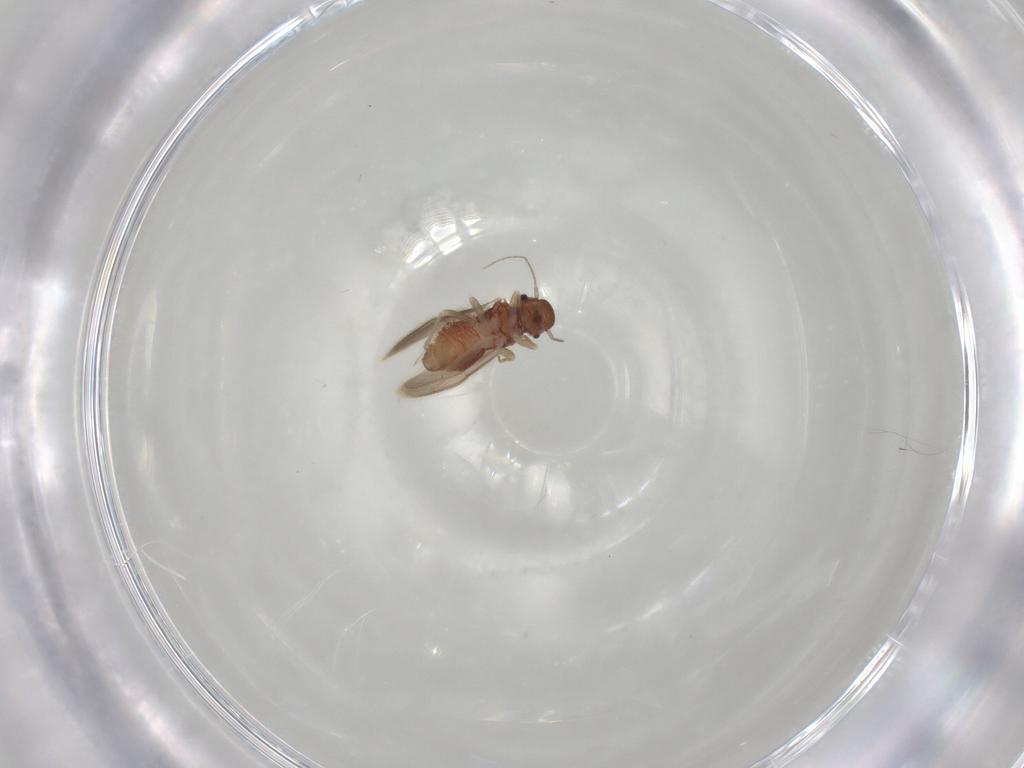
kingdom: Animalia
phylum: Arthropoda
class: Insecta
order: Psocodea
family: Archipsocidae
